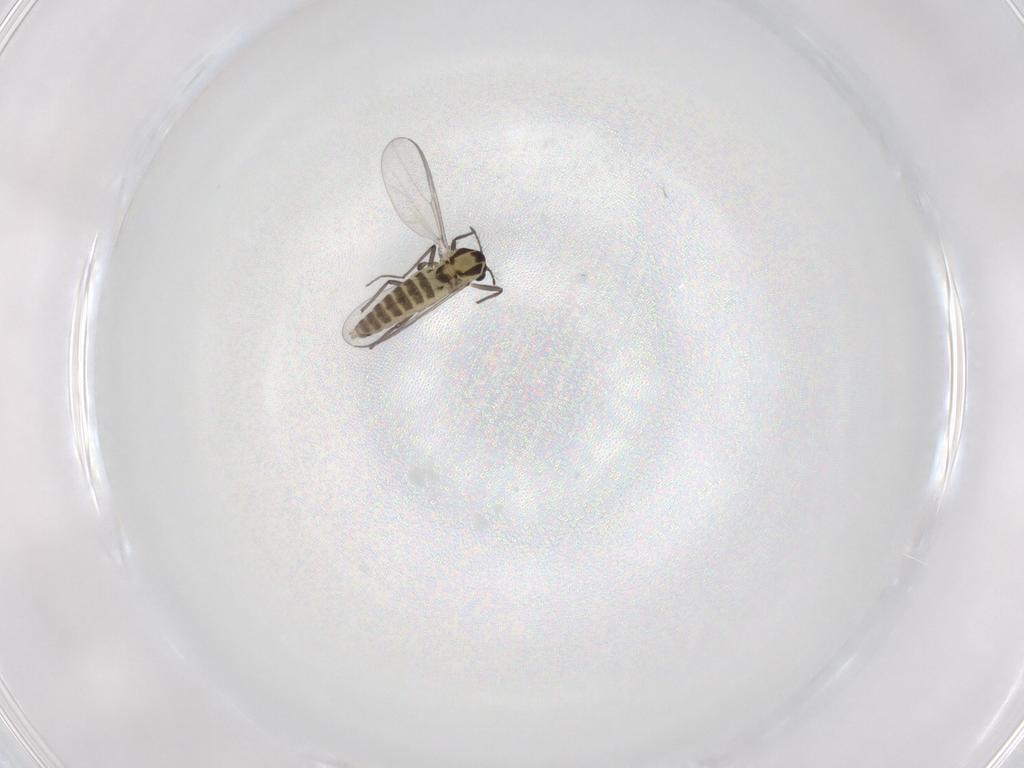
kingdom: Animalia
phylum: Arthropoda
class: Insecta
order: Diptera
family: Chironomidae
